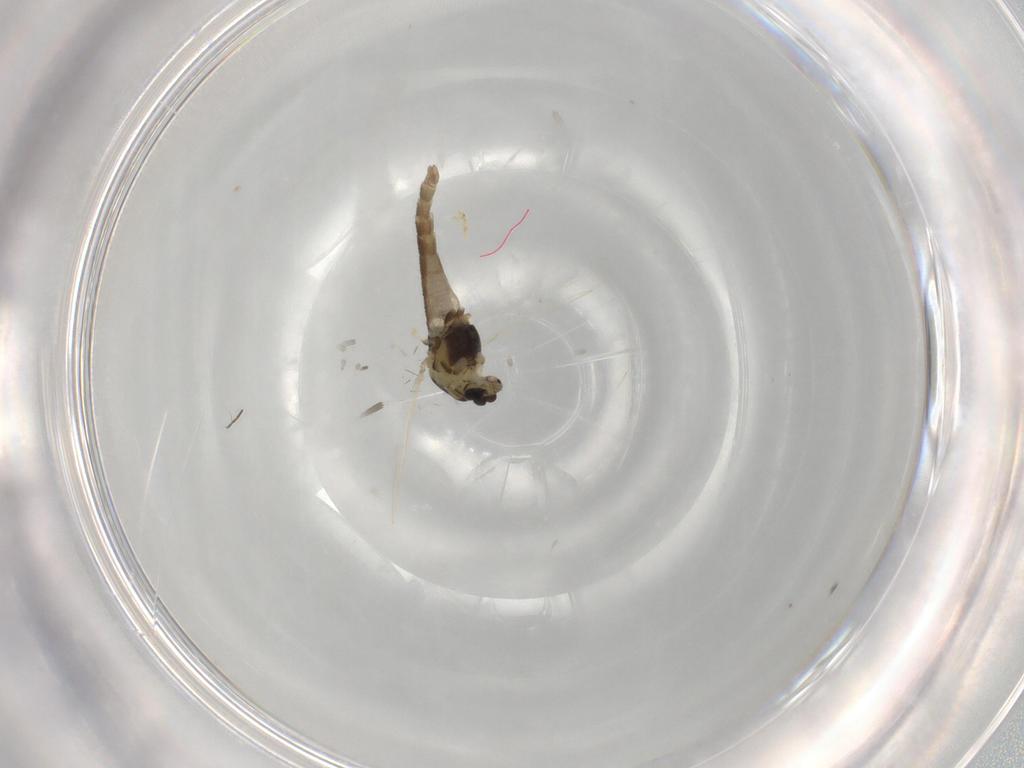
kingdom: Animalia
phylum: Arthropoda
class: Insecta
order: Diptera
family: Chironomidae
